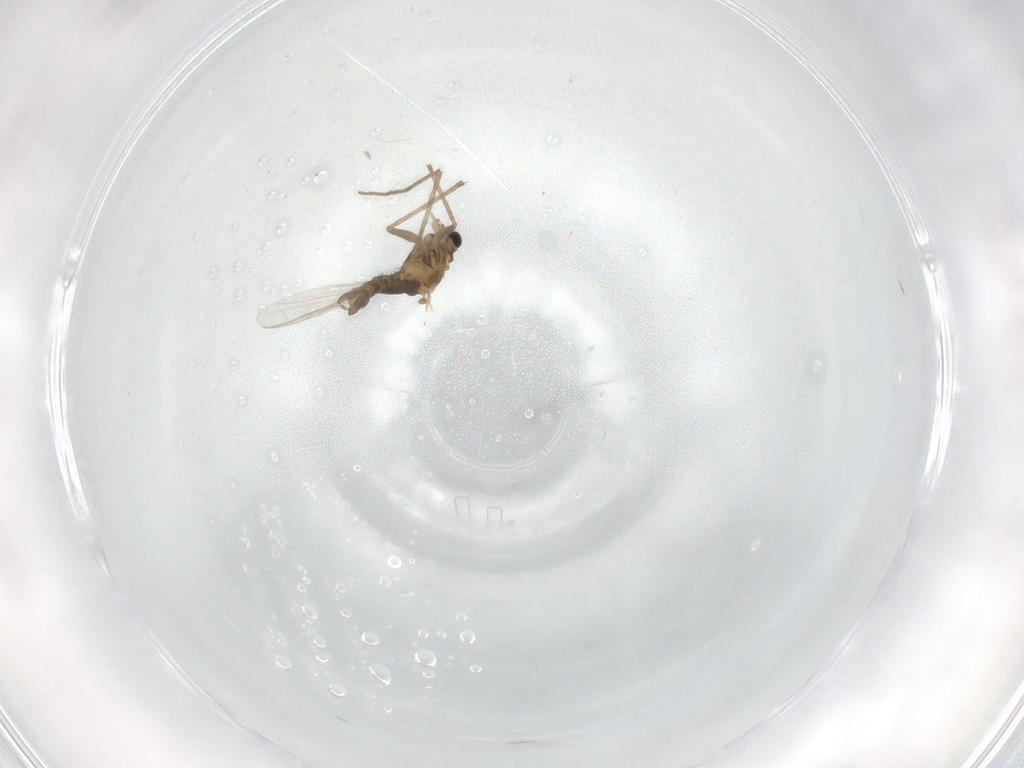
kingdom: Animalia
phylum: Arthropoda
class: Insecta
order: Diptera
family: Chironomidae
